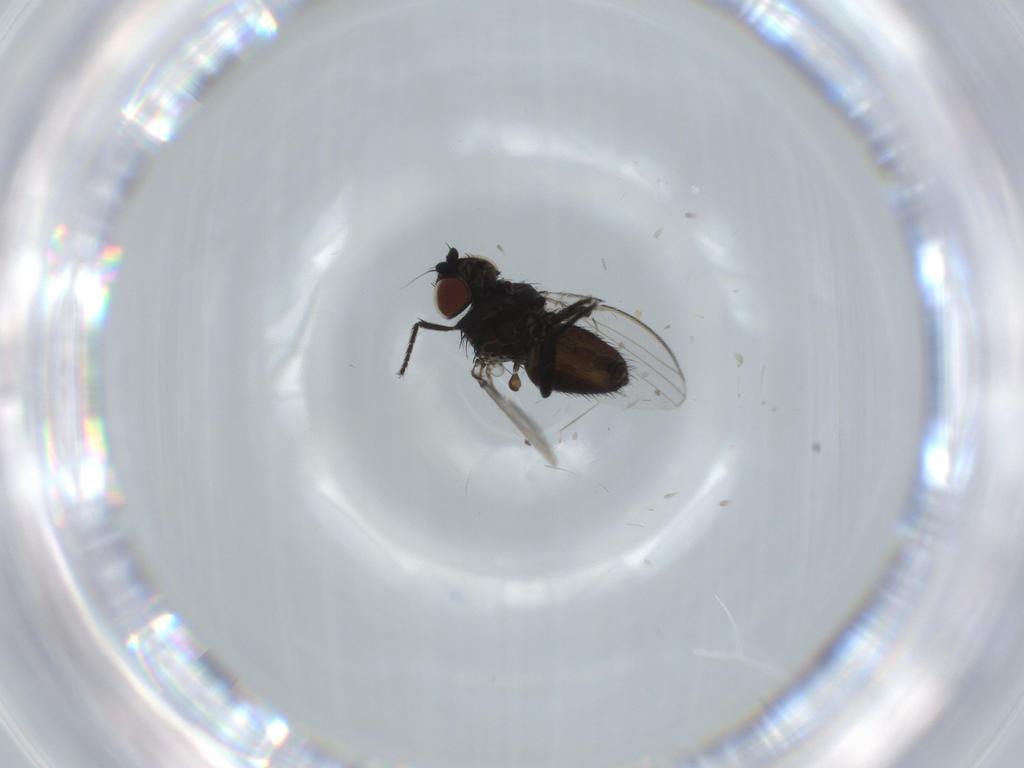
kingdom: Animalia
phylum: Arthropoda
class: Insecta
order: Diptera
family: Milichiidae
